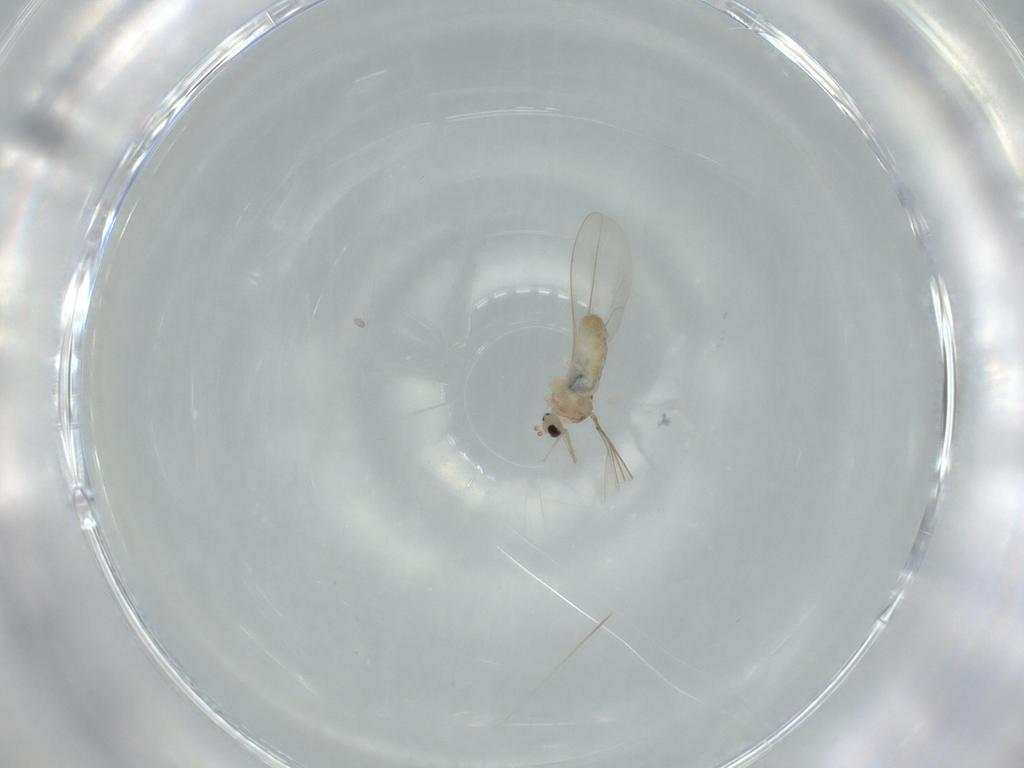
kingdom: Animalia
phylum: Arthropoda
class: Insecta
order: Diptera
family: Cecidomyiidae
